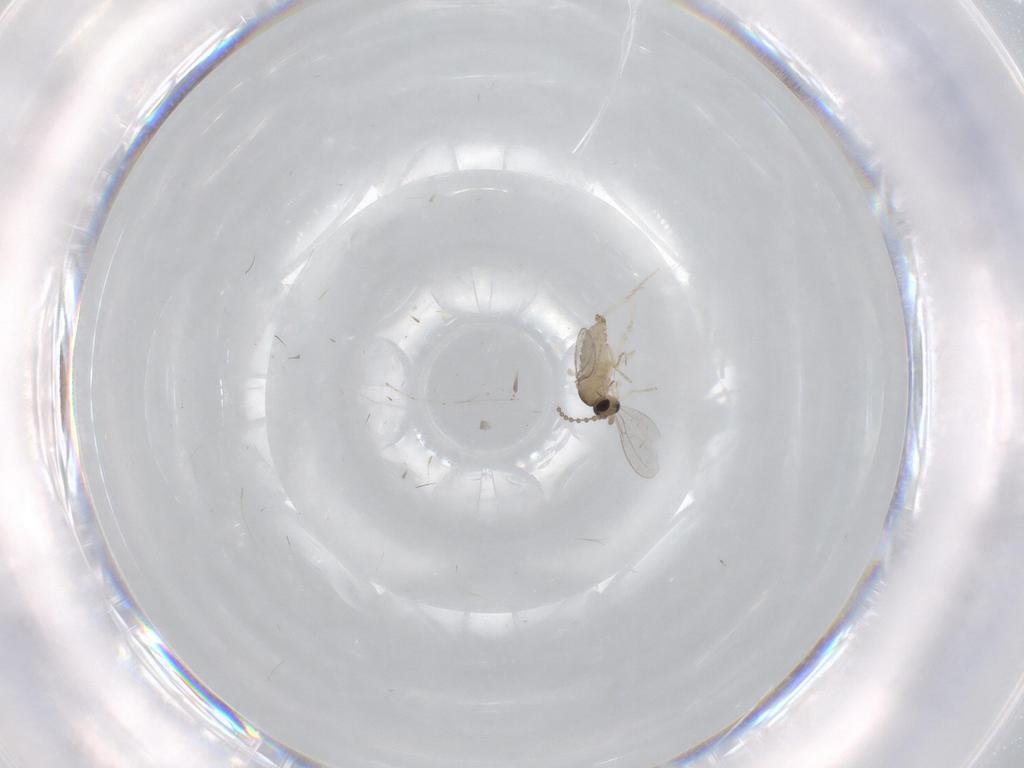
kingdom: Animalia
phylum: Arthropoda
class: Insecta
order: Diptera
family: Cecidomyiidae
